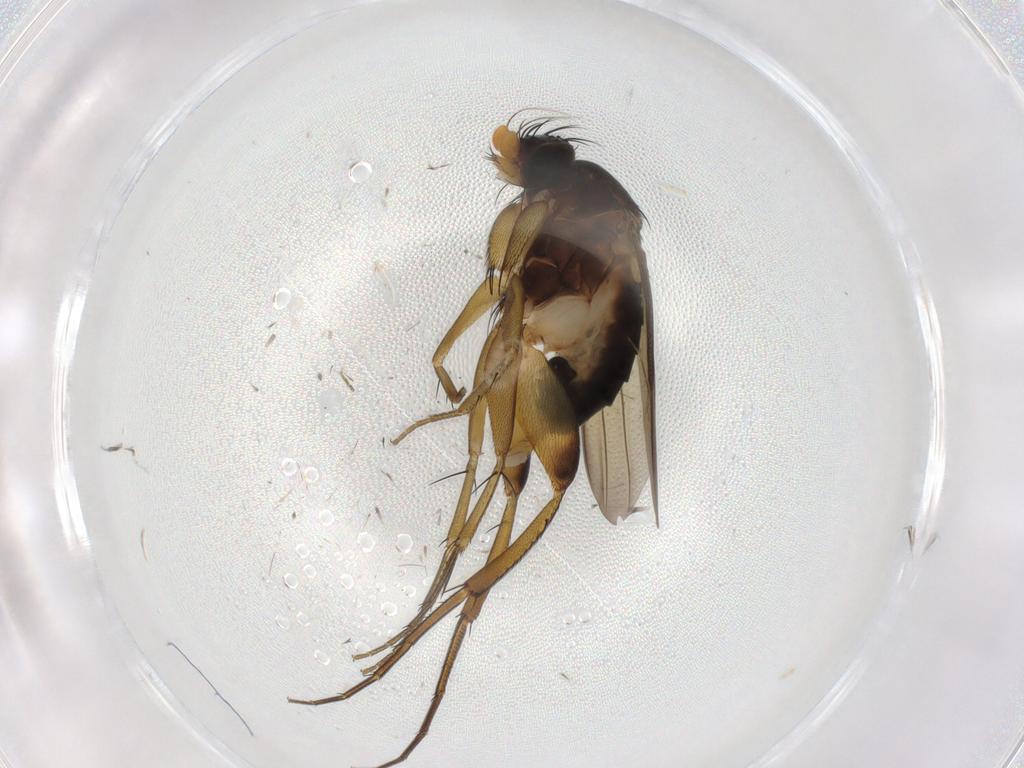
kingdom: Animalia
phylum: Arthropoda
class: Insecta
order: Diptera
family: Phoridae
